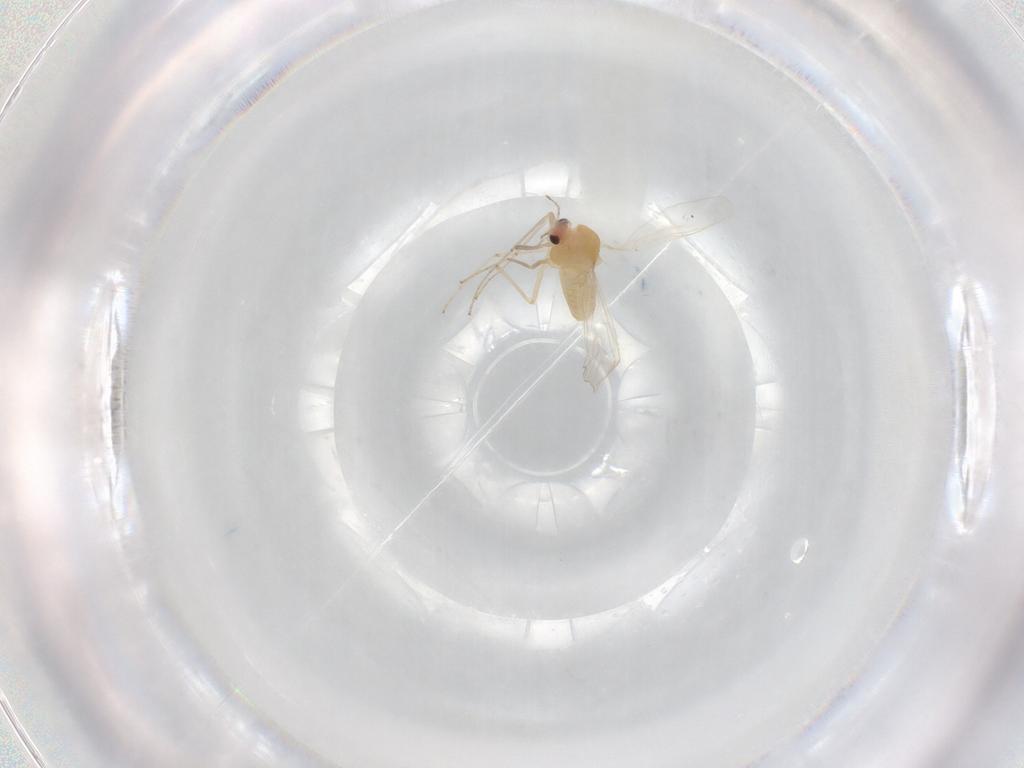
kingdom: Animalia
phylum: Arthropoda
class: Insecta
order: Diptera
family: Chironomidae
